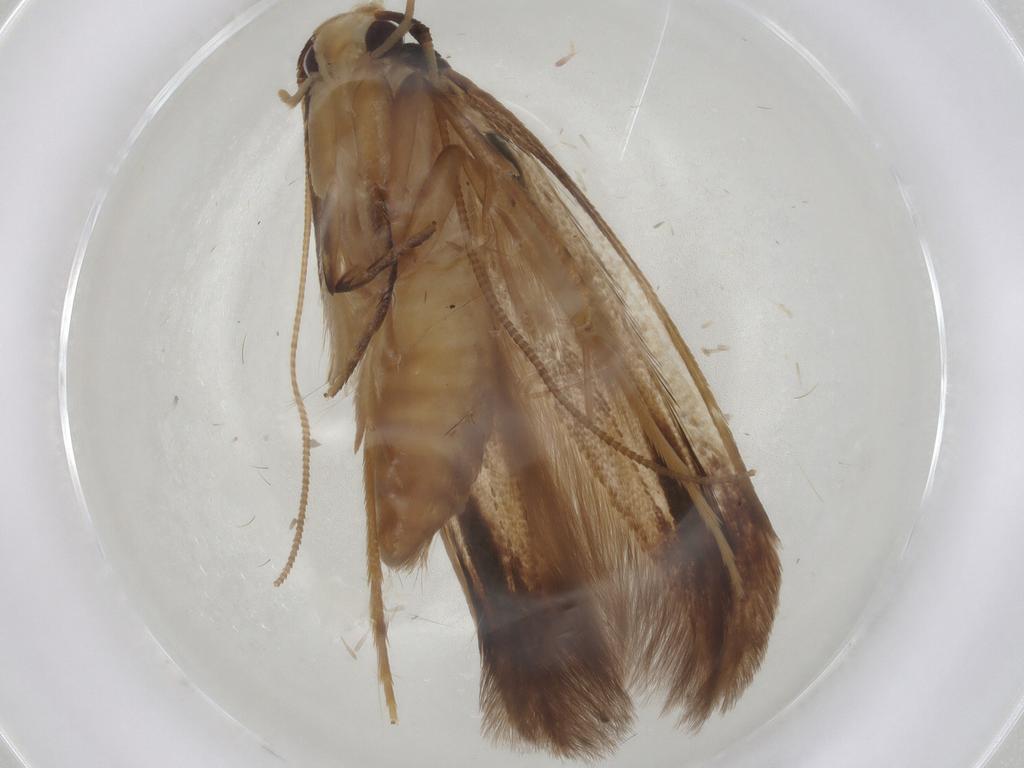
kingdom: Animalia
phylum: Arthropoda
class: Insecta
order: Lepidoptera
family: Tineidae
